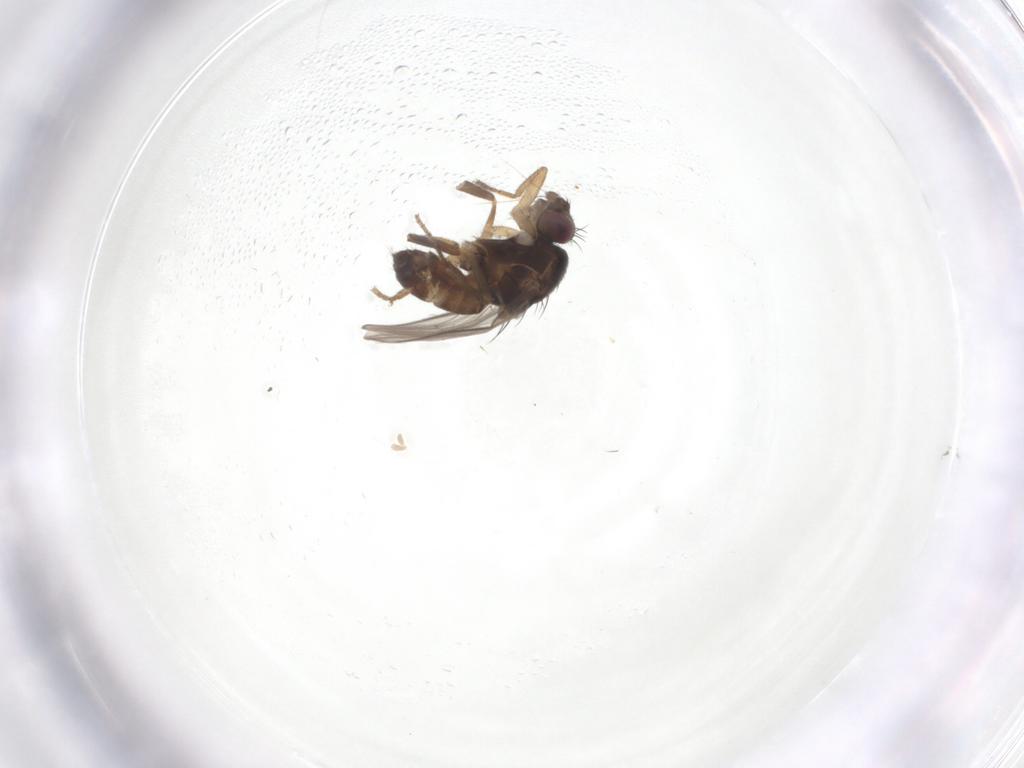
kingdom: Animalia
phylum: Arthropoda
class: Insecta
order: Diptera
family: Sphaeroceridae
